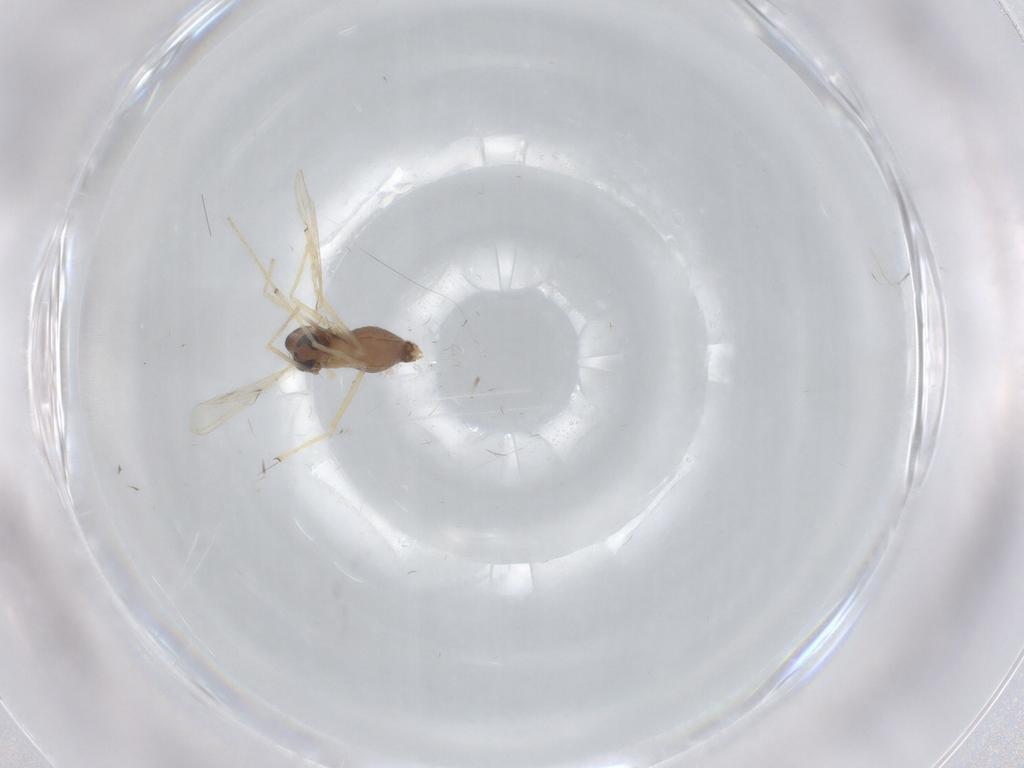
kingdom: Animalia
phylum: Arthropoda
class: Insecta
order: Diptera
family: Chironomidae
